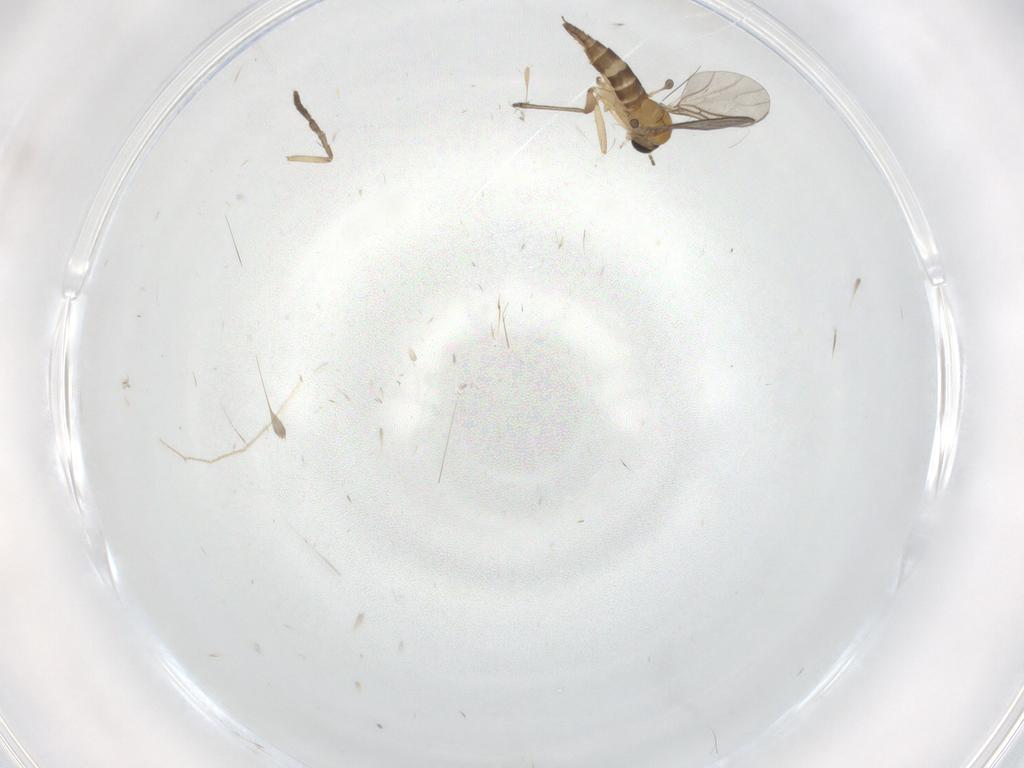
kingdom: Animalia
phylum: Arthropoda
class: Insecta
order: Diptera
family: Psychodidae
